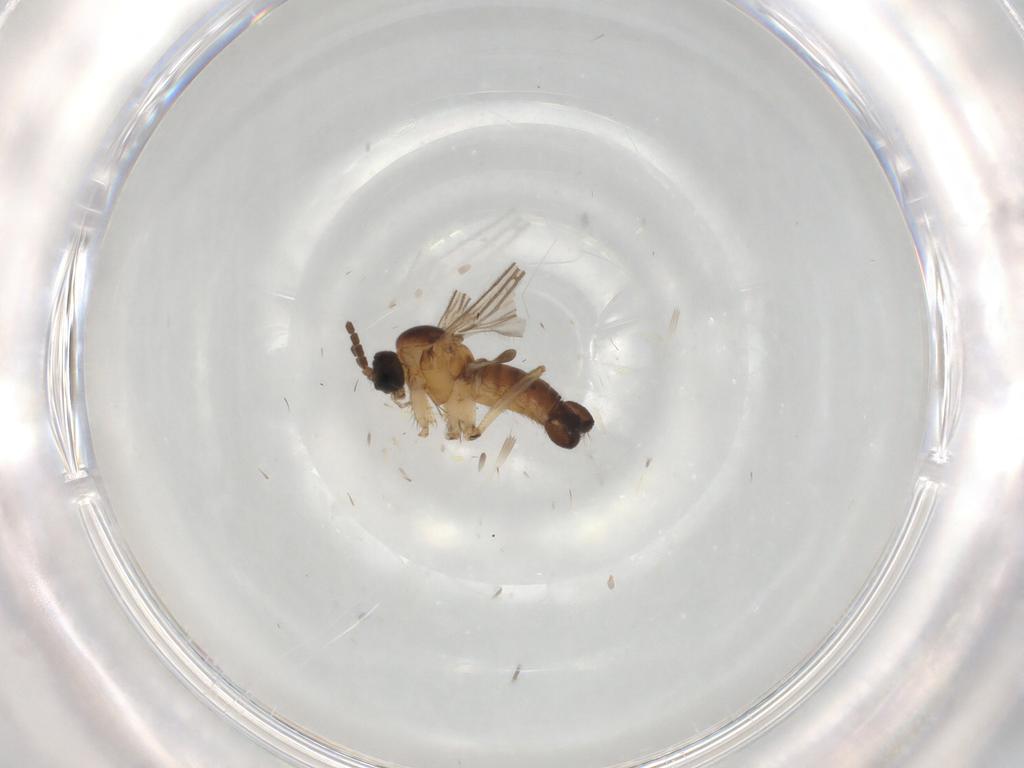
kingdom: Animalia
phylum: Arthropoda
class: Insecta
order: Diptera
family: Sciaridae
